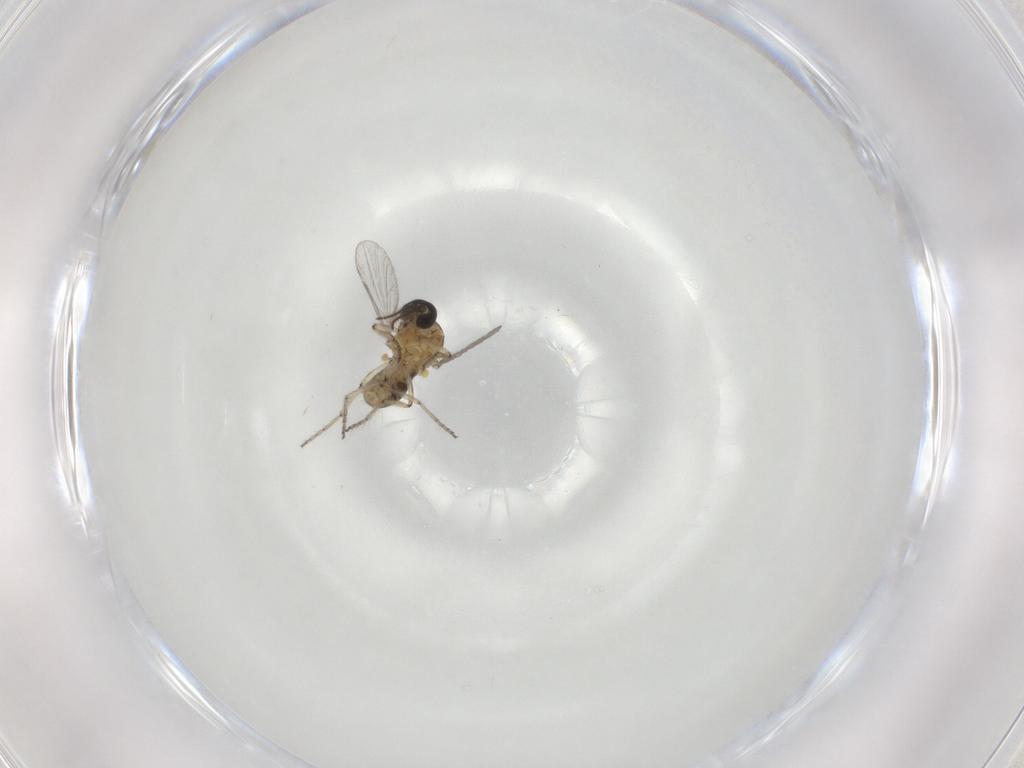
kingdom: Animalia
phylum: Arthropoda
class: Insecta
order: Diptera
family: Ceratopogonidae
